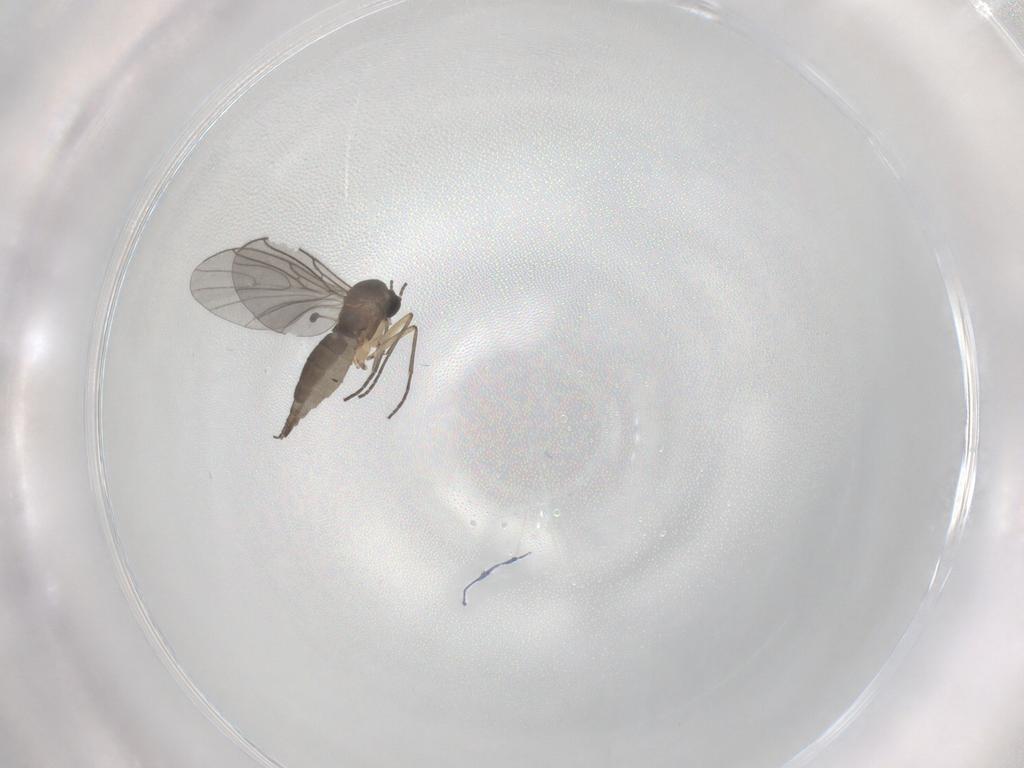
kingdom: Animalia
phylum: Arthropoda
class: Insecta
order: Diptera
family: Sciaridae
